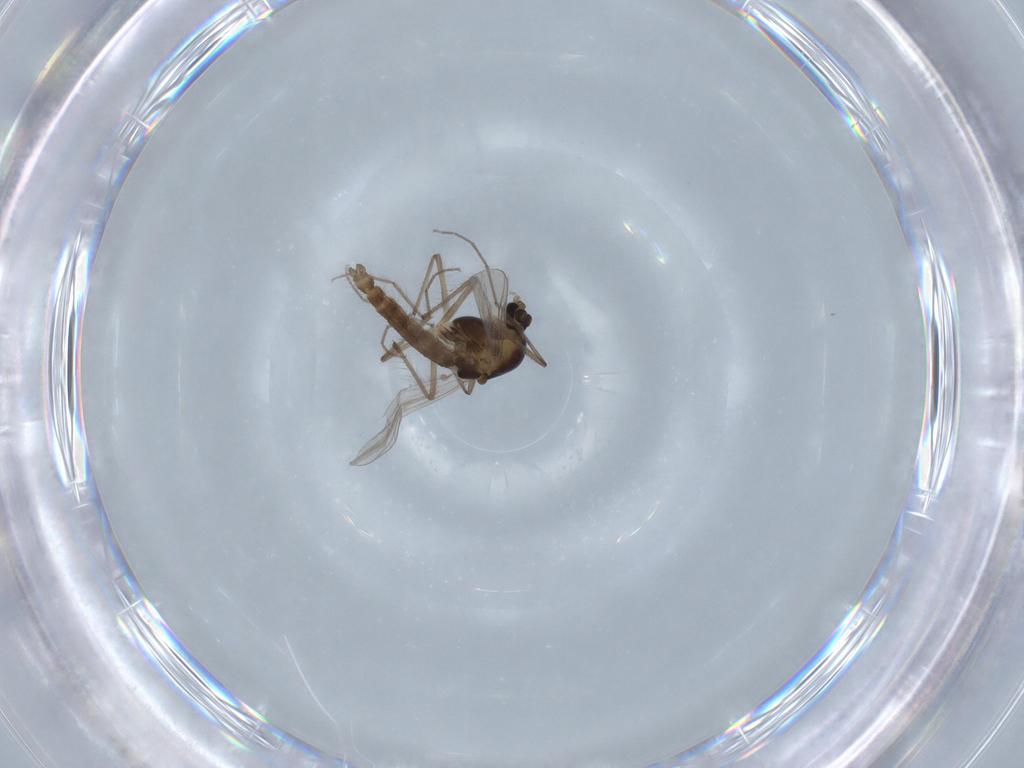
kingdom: Animalia
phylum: Arthropoda
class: Insecta
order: Diptera
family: Chironomidae
